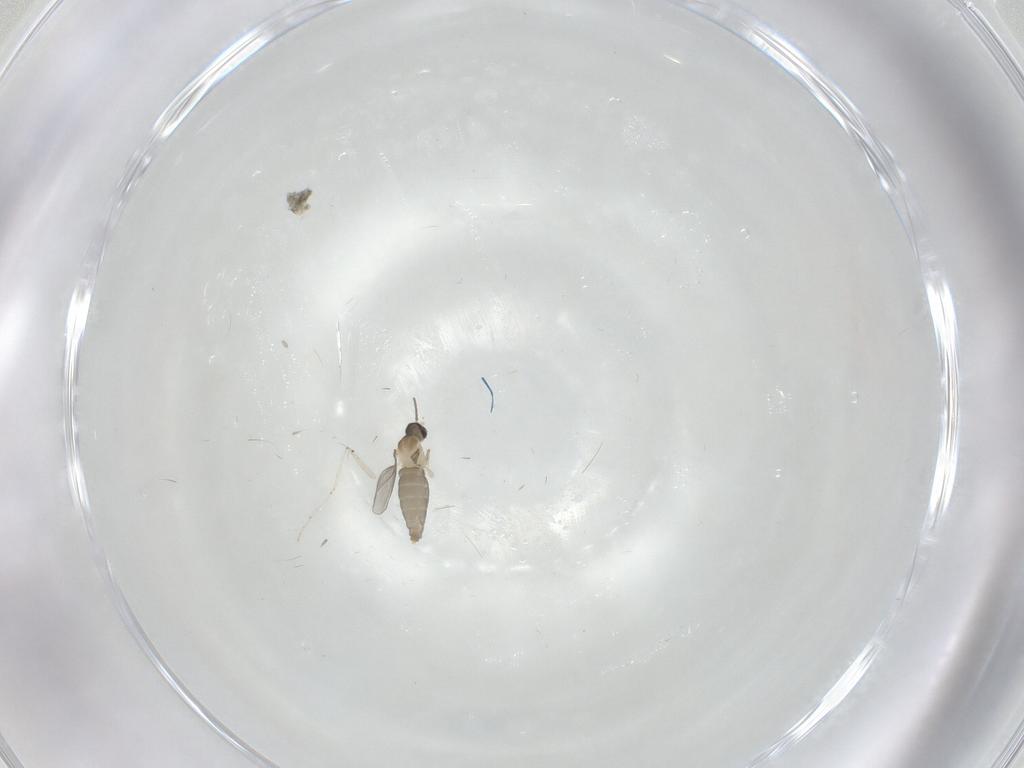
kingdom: Animalia
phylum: Arthropoda
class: Insecta
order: Diptera
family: Cecidomyiidae
